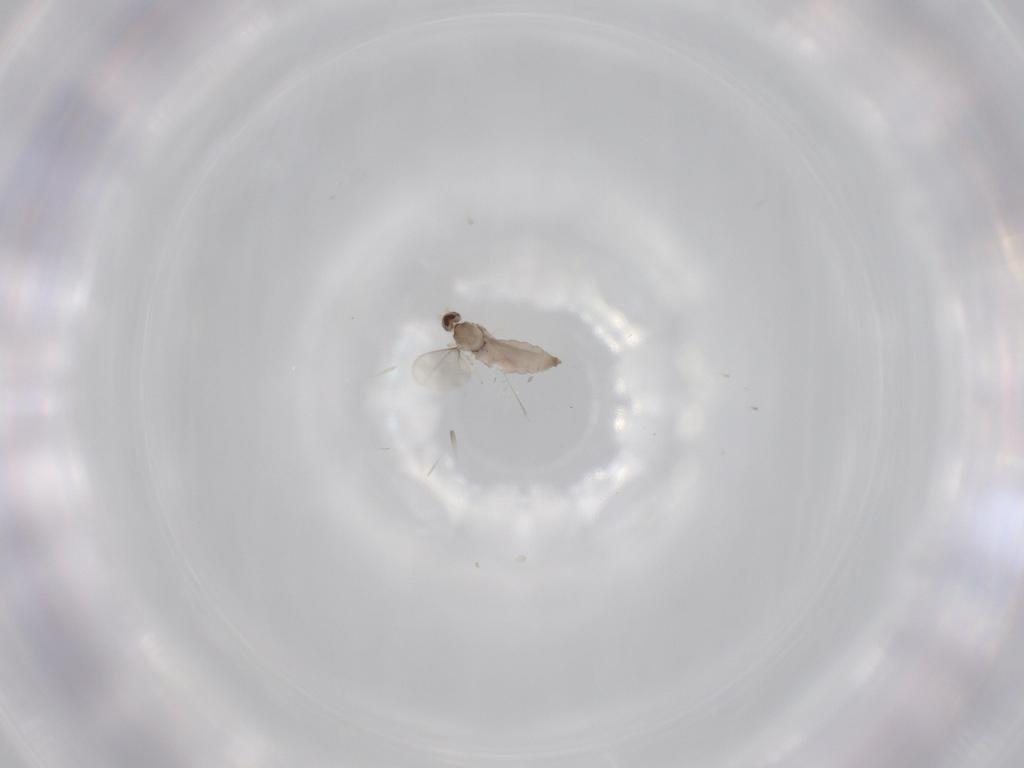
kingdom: Animalia
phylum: Arthropoda
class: Insecta
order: Diptera
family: Cecidomyiidae
